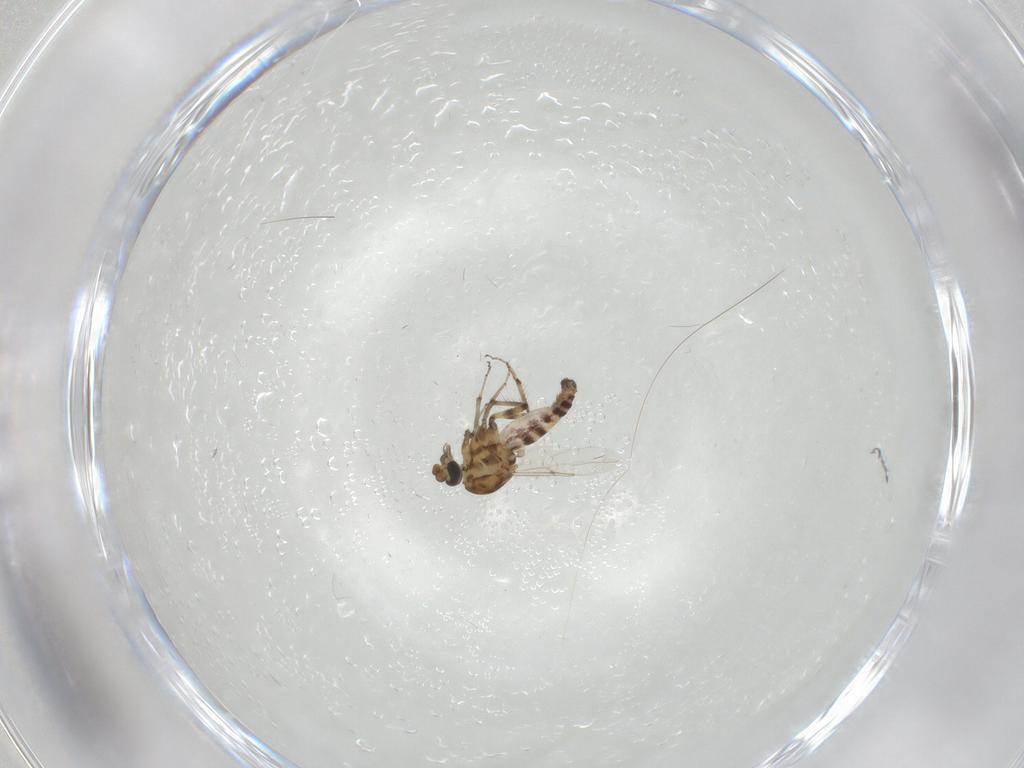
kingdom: Animalia
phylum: Arthropoda
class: Insecta
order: Diptera
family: Ceratopogonidae
